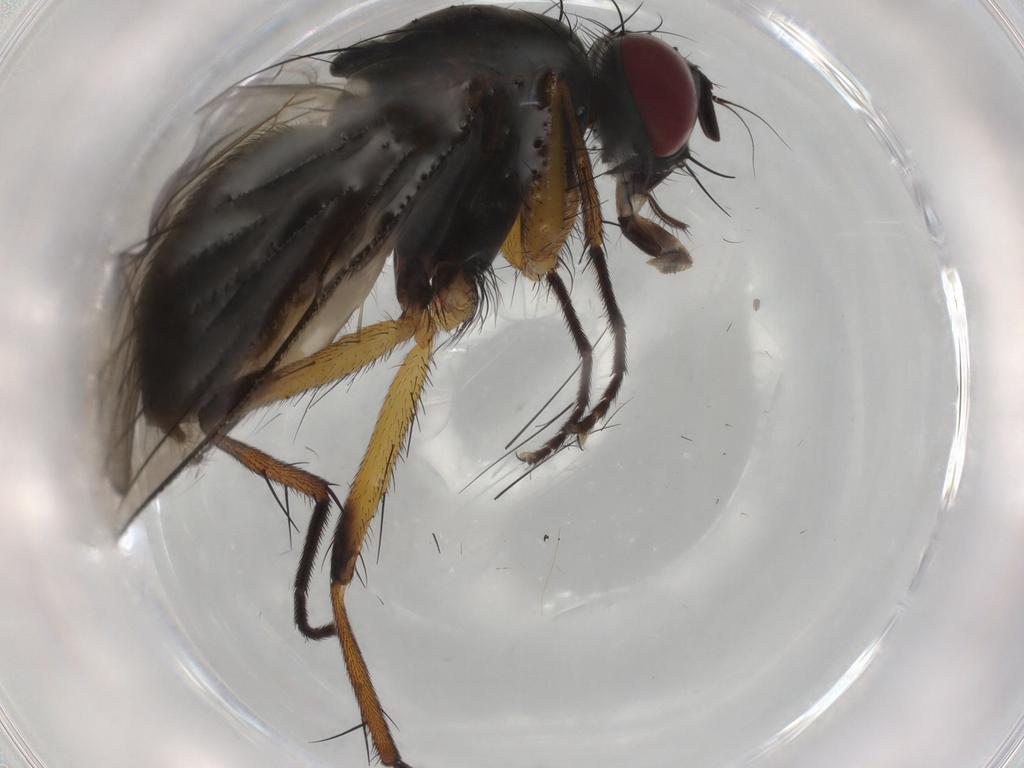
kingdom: Animalia
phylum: Arthropoda
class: Insecta
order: Diptera
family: Muscidae
